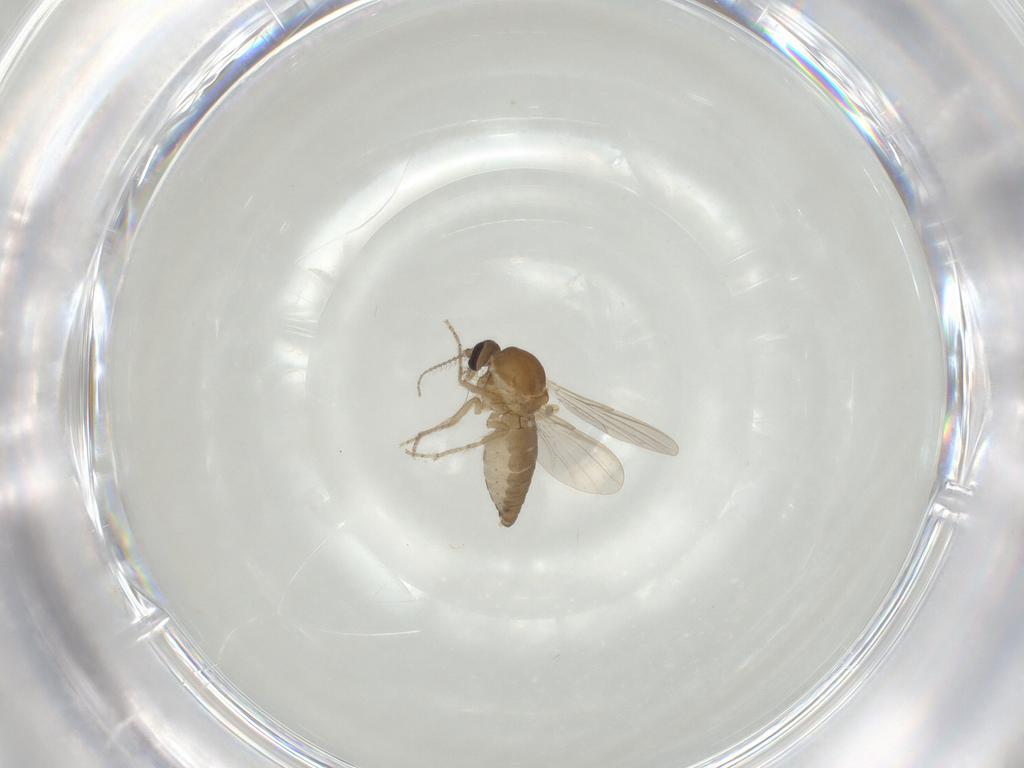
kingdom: Animalia
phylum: Arthropoda
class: Insecta
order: Diptera
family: Ceratopogonidae
